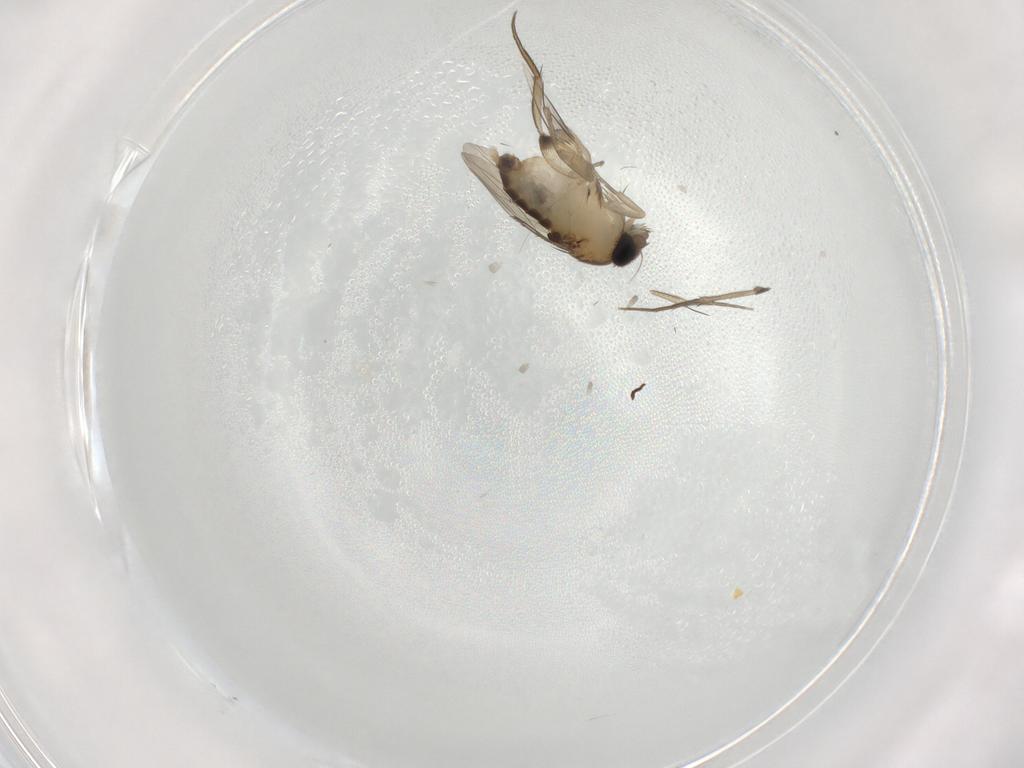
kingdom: Animalia
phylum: Arthropoda
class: Insecta
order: Diptera
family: Phoridae
